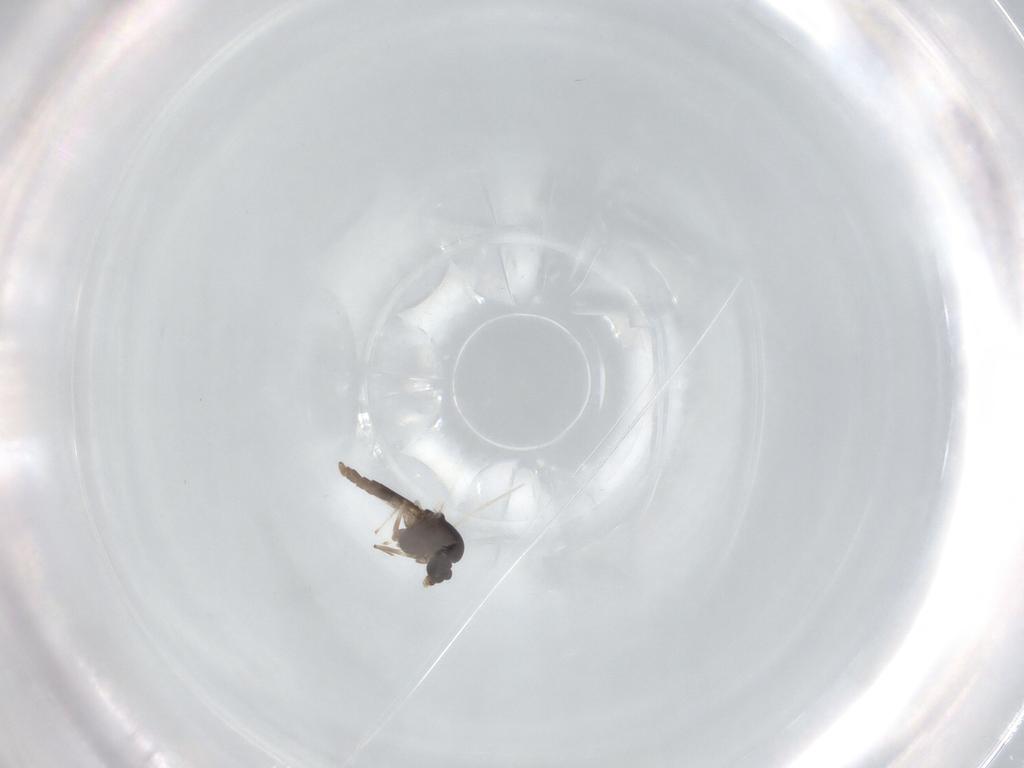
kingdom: Animalia
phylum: Arthropoda
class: Insecta
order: Diptera
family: Chironomidae
